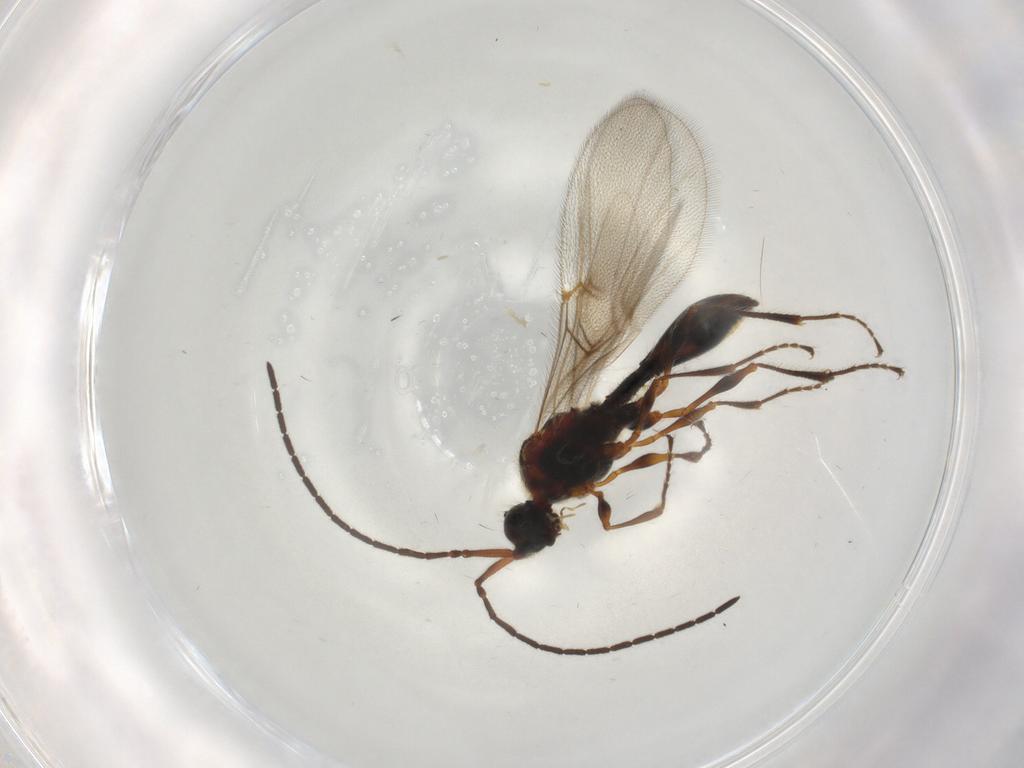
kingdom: Animalia
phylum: Arthropoda
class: Insecta
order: Hymenoptera
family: Diapriidae
